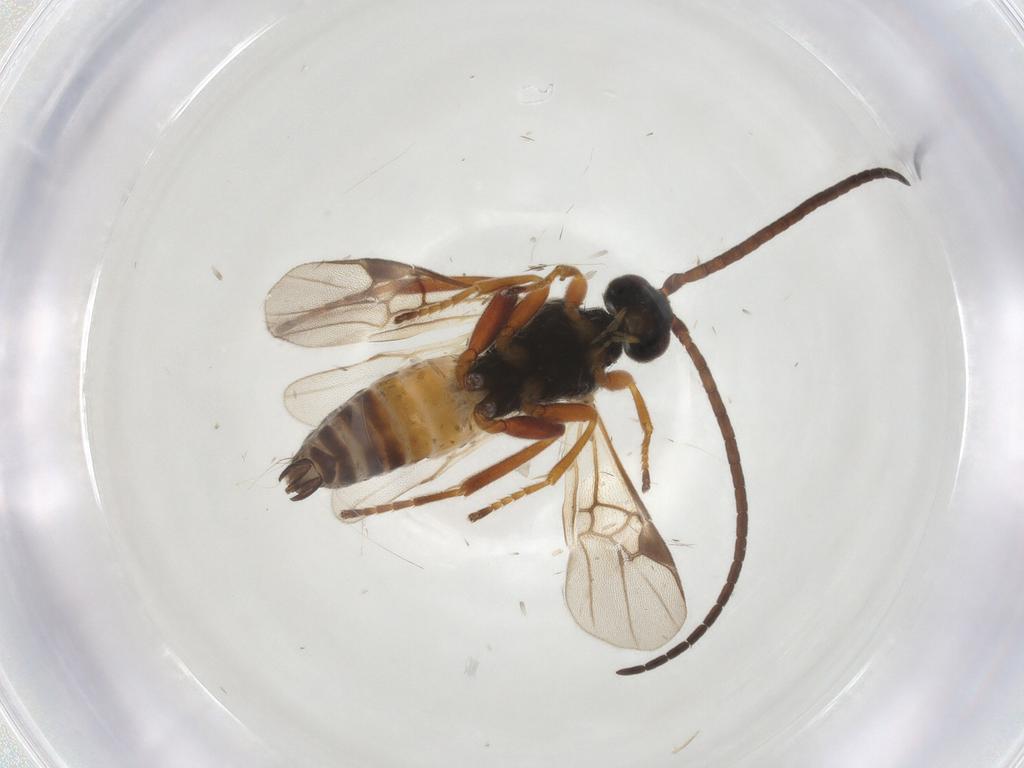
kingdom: Animalia
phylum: Arthropoda
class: Insecta
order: Hymenoptera
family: Braconidae
